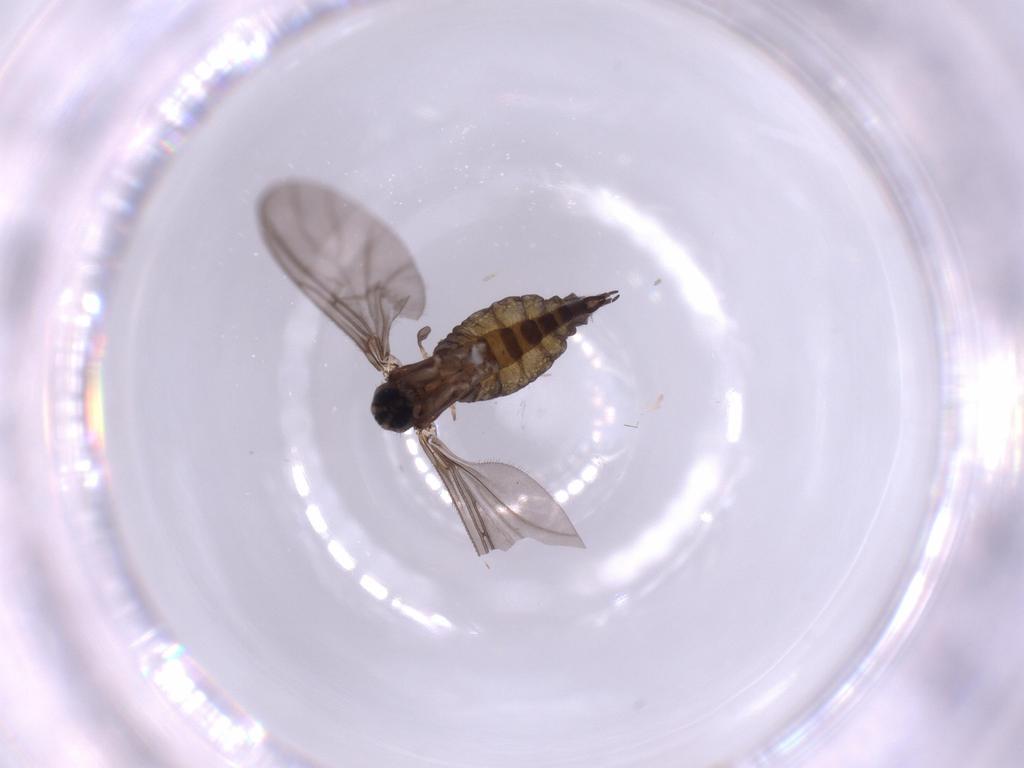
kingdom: Animalia
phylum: Arthropoda
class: Insecta
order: Diptera
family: Sciaridae
